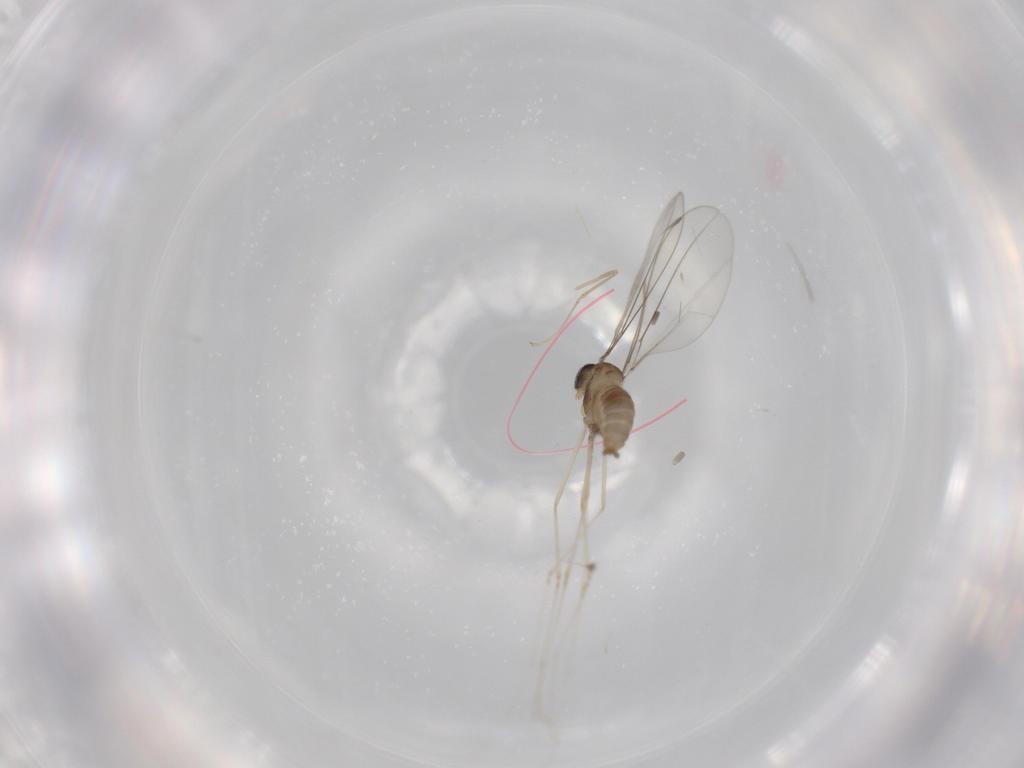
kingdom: Animalia
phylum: Arthropoda
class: Insecta
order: Diptera
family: Cecidomyiidae
